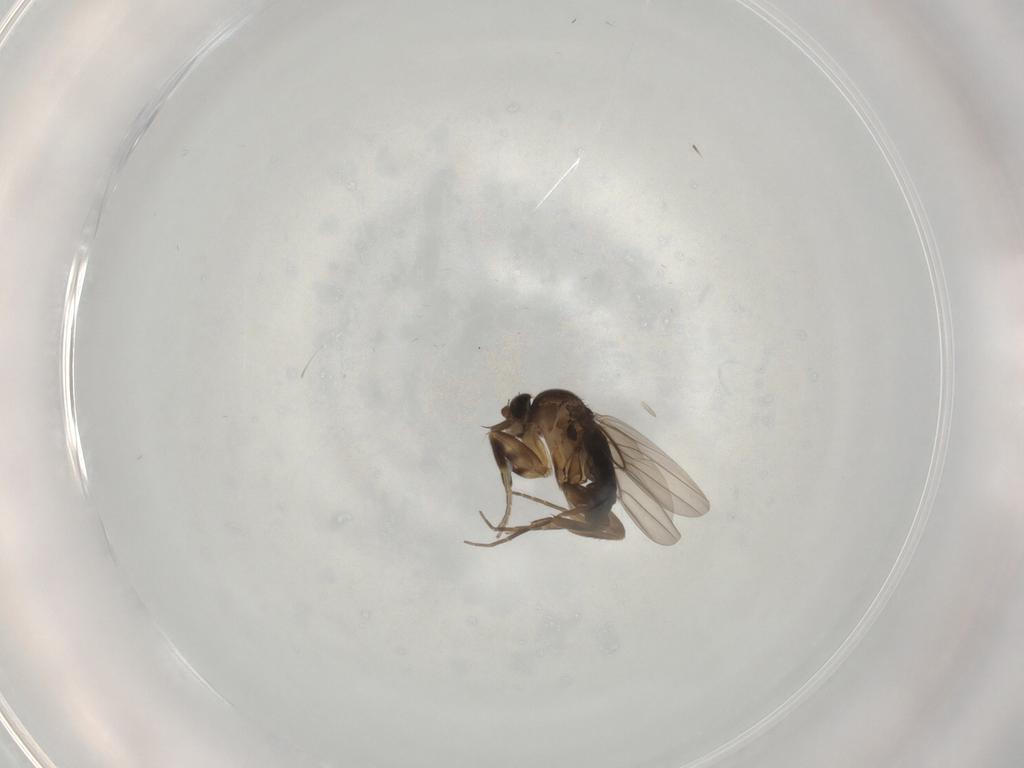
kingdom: Animalia
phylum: Arthropoda
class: Insecta
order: Diptera
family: Phoridae
